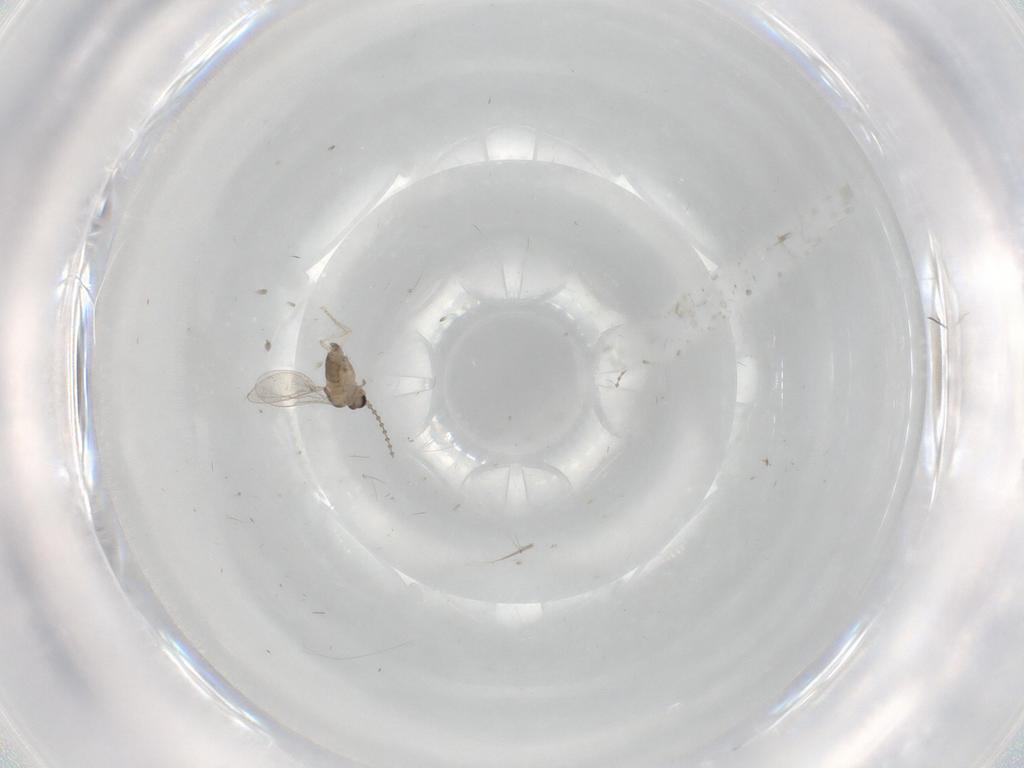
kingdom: Animalia
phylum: Arthropoda
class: Insecta
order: Diptera
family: Cecidomyiidae
